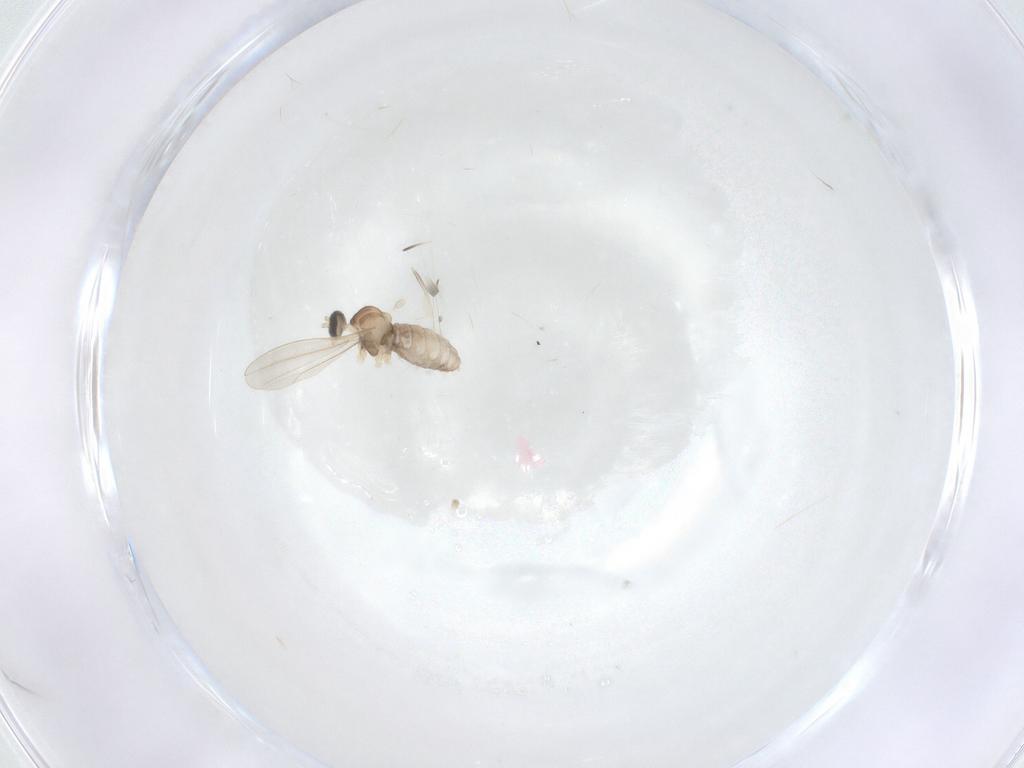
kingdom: Animalia
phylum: Arthropoda
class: Insecta
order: Diptera
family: Cecidomyiidae
